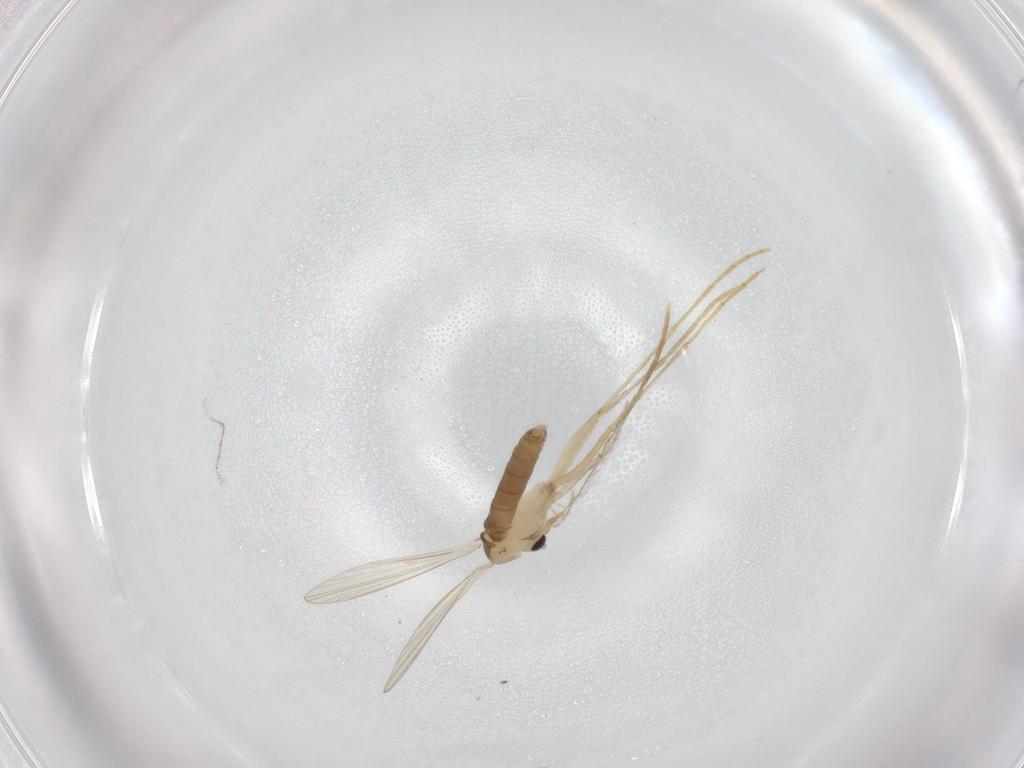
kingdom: Animalia
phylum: Arthropoda
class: Insecta
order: Diptera
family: Psychodidae
